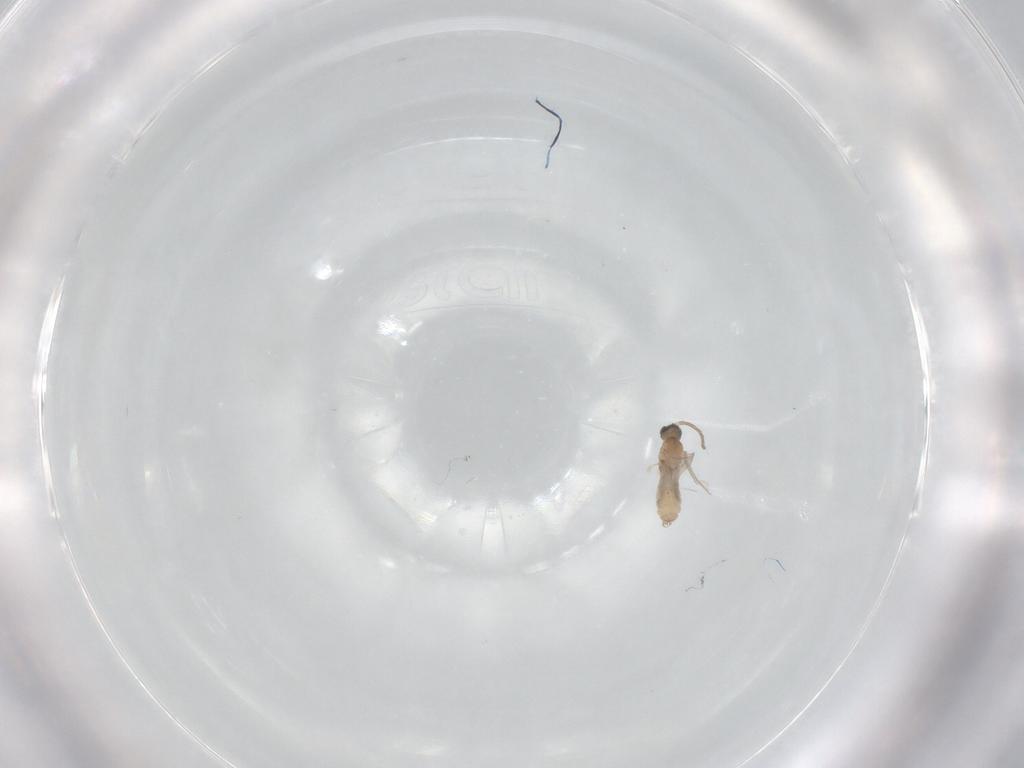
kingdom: Animalia
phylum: Arthropoda
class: Insecta
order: Diptera
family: Cecidomyiidae
